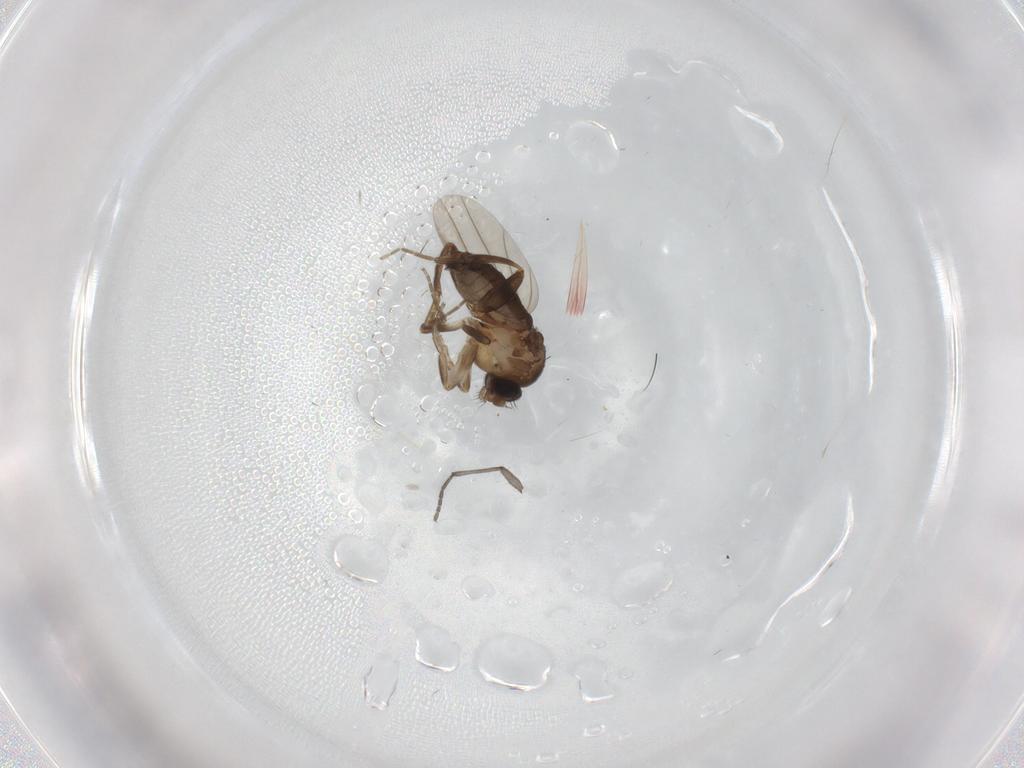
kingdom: Animalia
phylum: Arthropoda
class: Insecta
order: Diptera
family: Sciaridae
